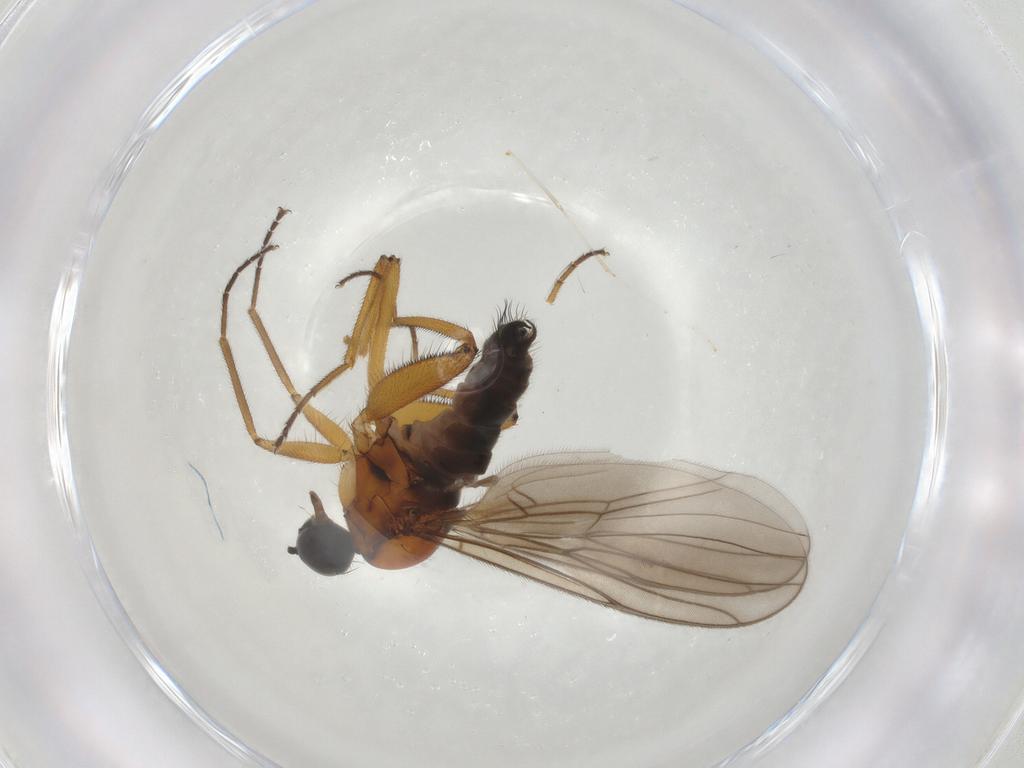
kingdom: Animalia
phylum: Arthropoda
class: Insecta
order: Diptera
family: Hybotidae
